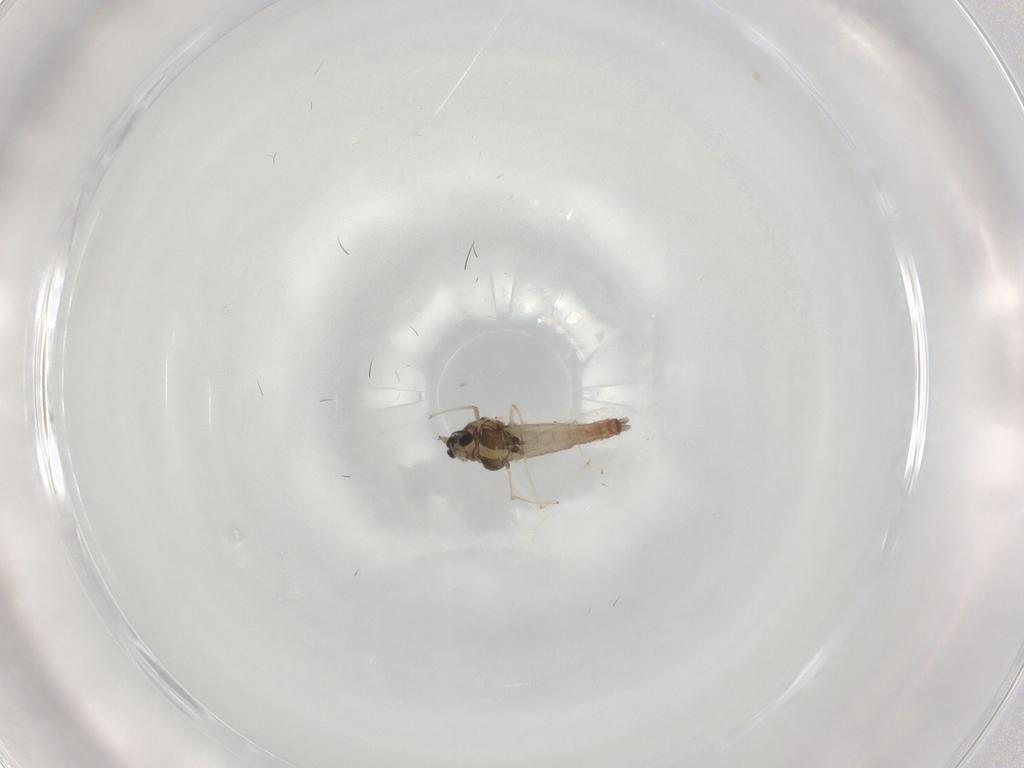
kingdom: Animalia
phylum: Arthropoda
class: Insecta
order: Diptera
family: Chironomidae
